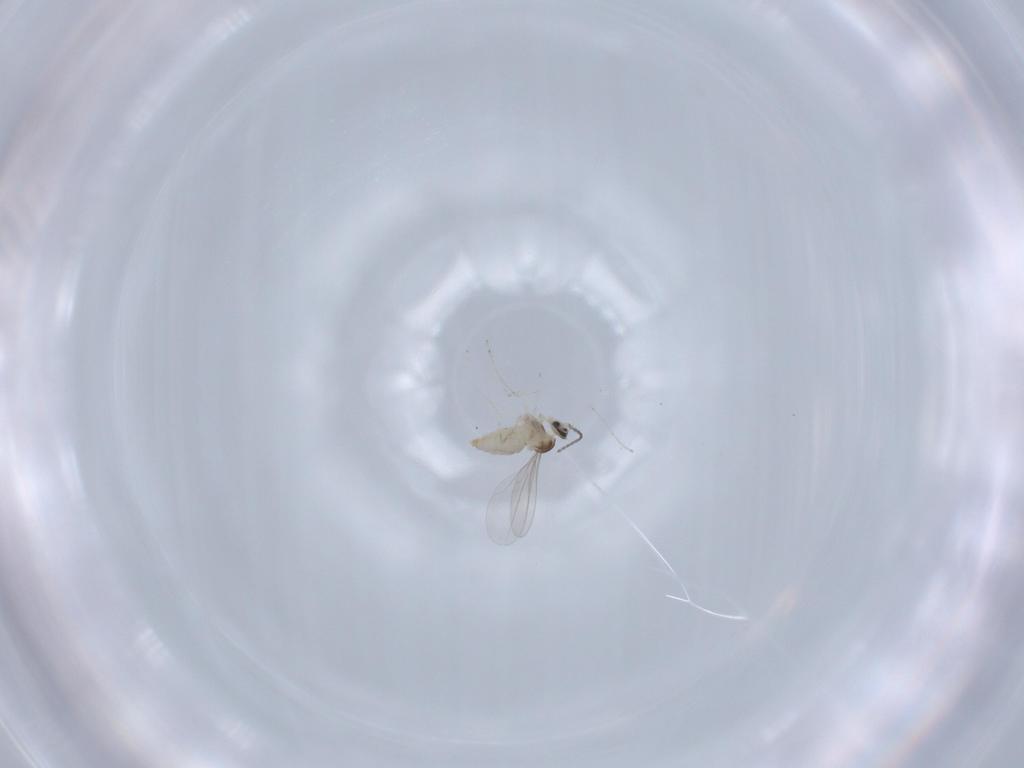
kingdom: Animalia
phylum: Arthropoda
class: Insecta
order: Diptera
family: Cecidomyiidae
